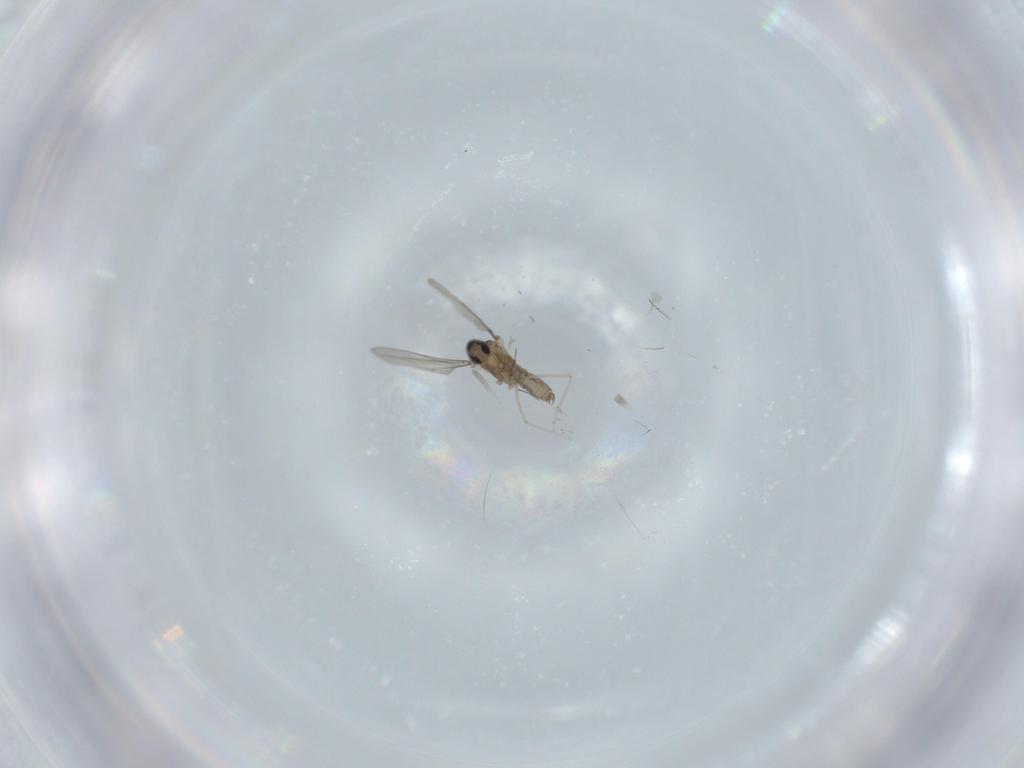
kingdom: Animalia
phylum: Arthropoda
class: Insecta
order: Diptera
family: Cecidomyiidae
